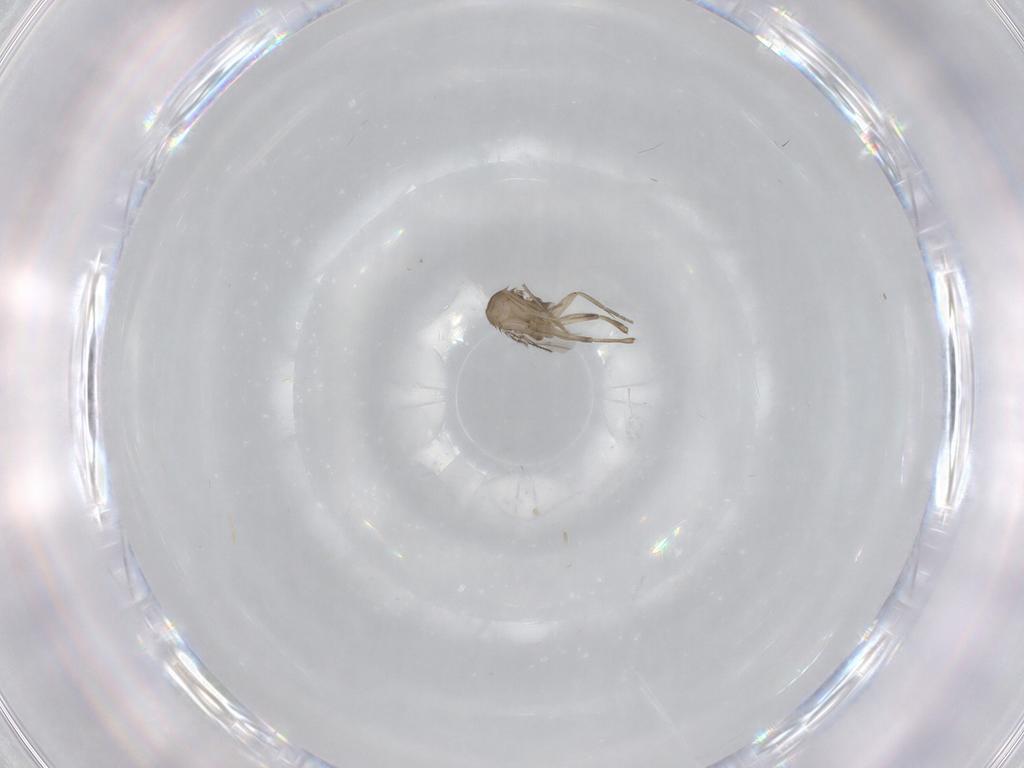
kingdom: Animalia
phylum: Arthropoda
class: Insecta
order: Diptera
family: Phoridae
